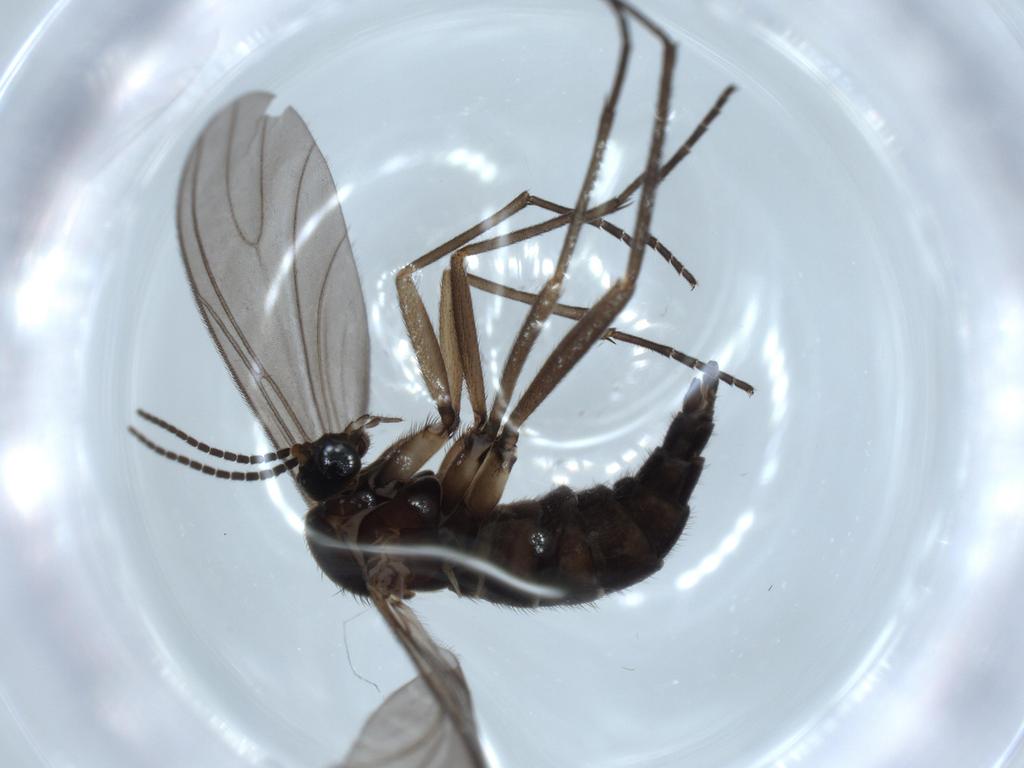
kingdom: Animalia
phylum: Arthropoda
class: Insecta
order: Diptera
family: Sciaridae
